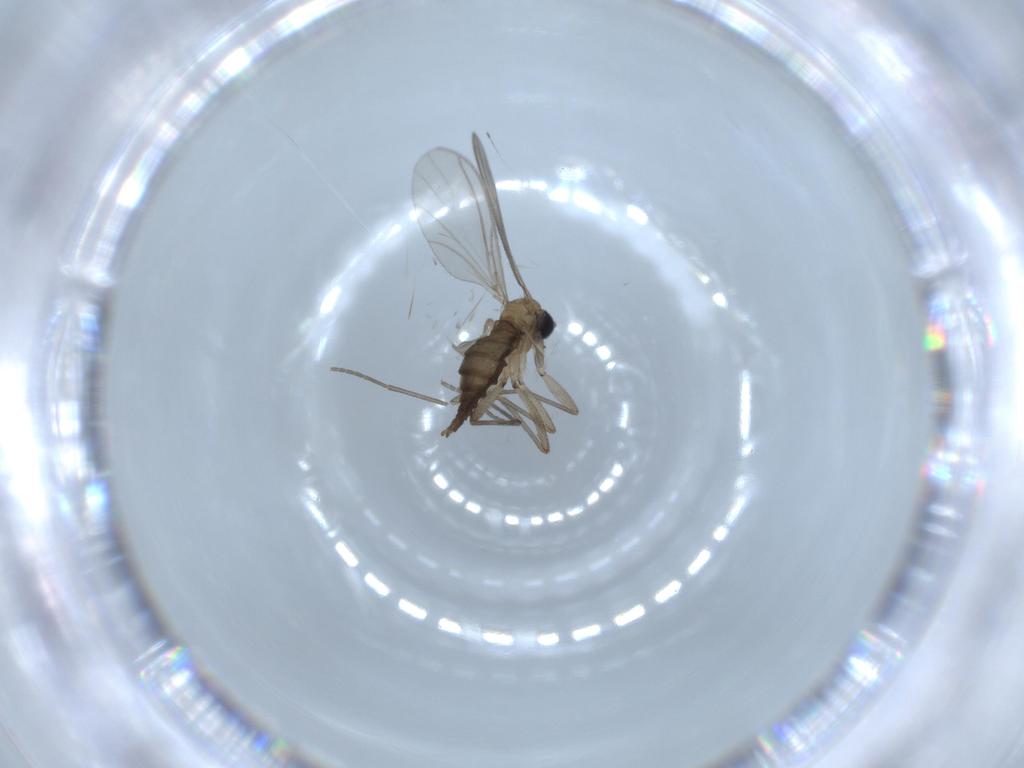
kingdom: Animalia
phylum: Arthropoda
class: Insecta
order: Diptera
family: Sciaridae
